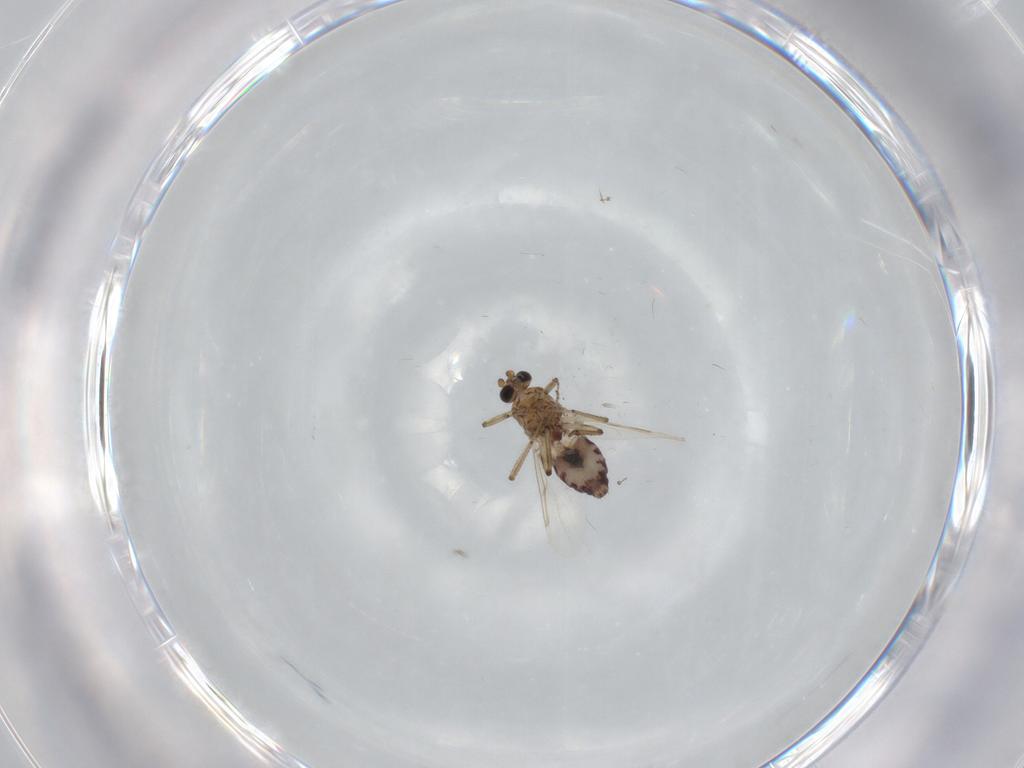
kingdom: Animalia
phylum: Arthropoda
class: Insecta
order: Diptera
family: Ceratopogonidae
